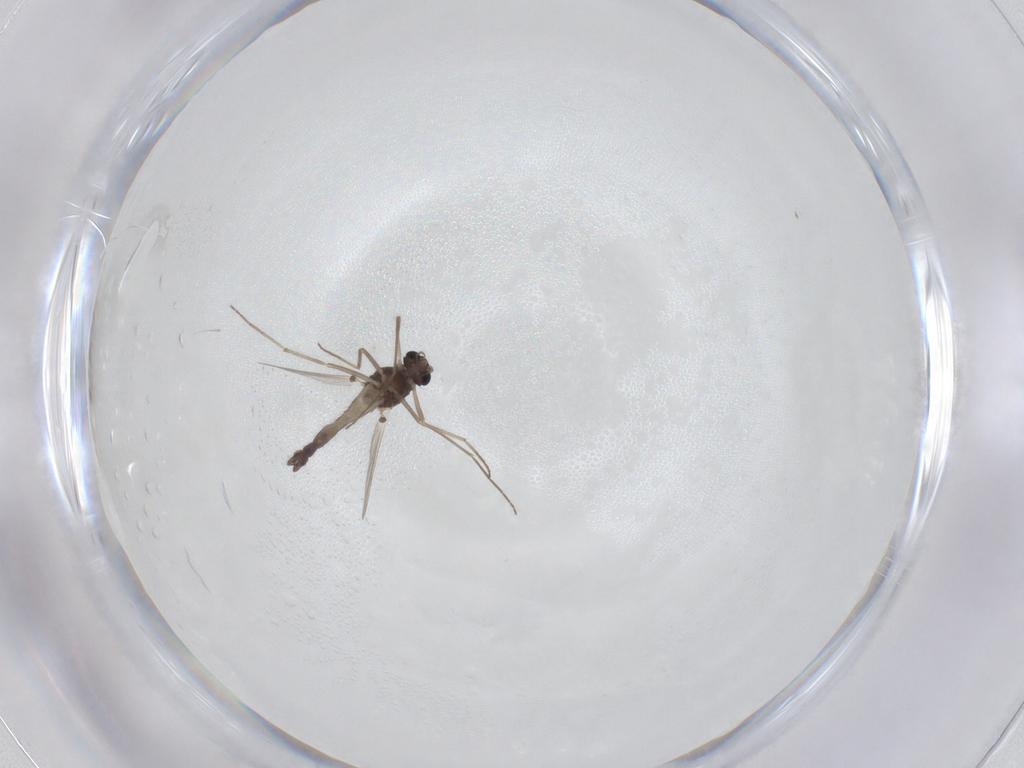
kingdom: Animalia
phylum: Arthropoda
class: Insecta
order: Diptera
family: Chironomidae
